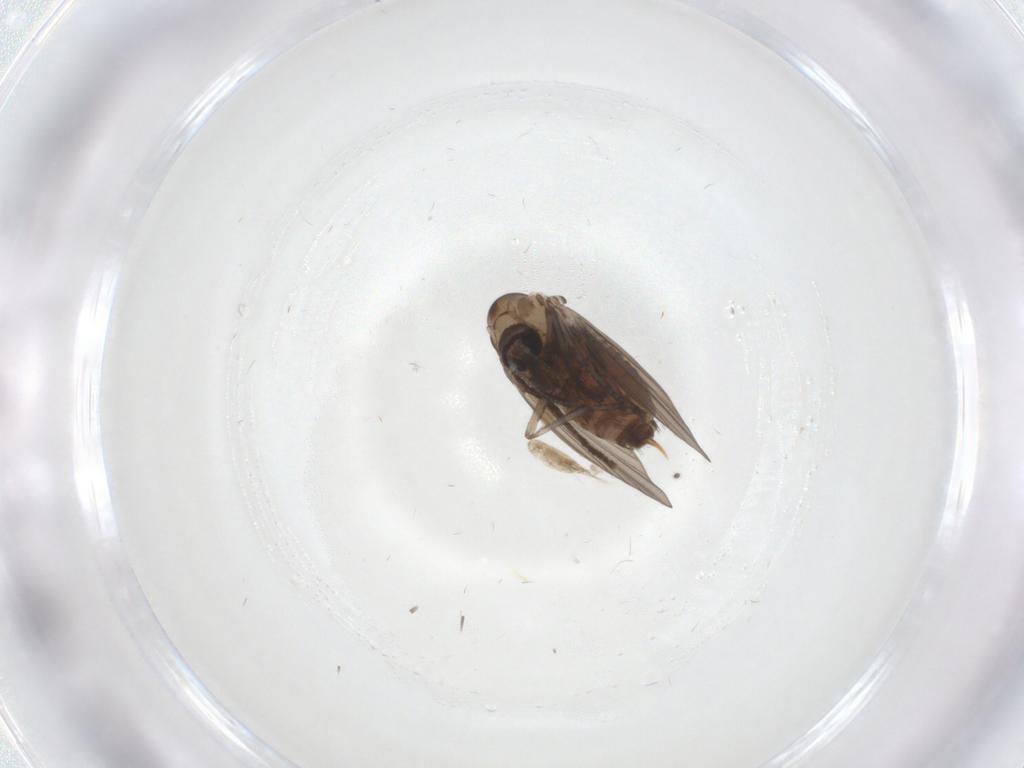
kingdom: Animalia
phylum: Arthropoda
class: Insecta
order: Diptera
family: Psychodidae
